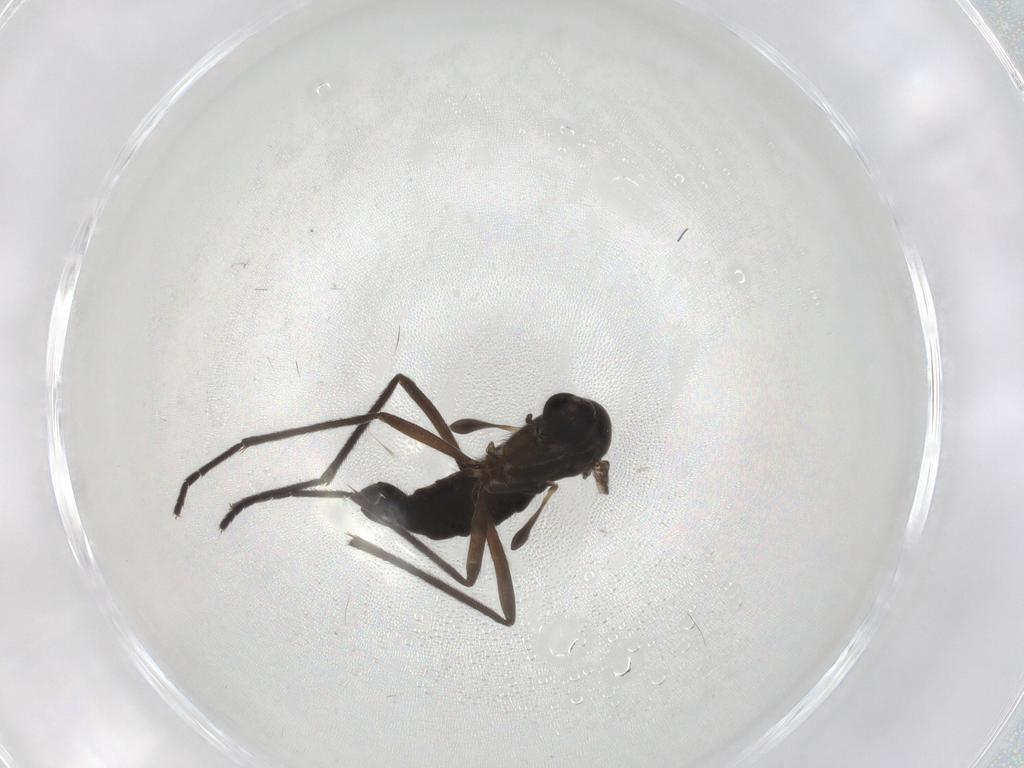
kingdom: Animalia
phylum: Arthropoda
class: Insecta
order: Diptera
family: Sciaridae
